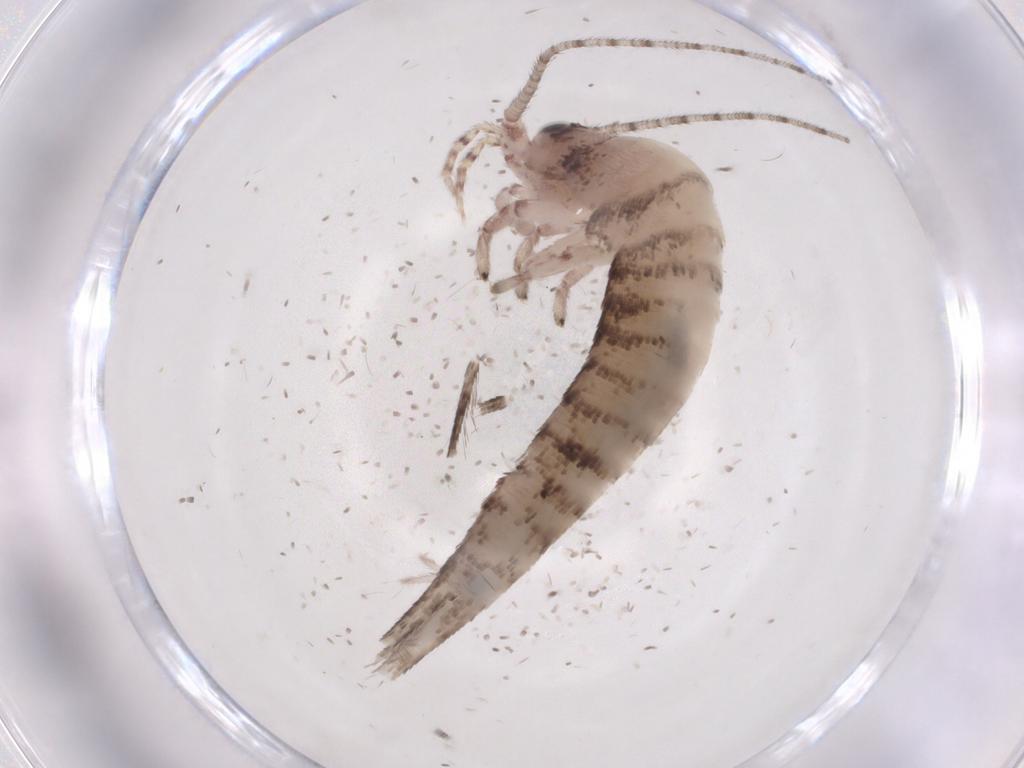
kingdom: Animalia
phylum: Arthropoda
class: Insecta
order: Archaeognatha
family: Machilidae
